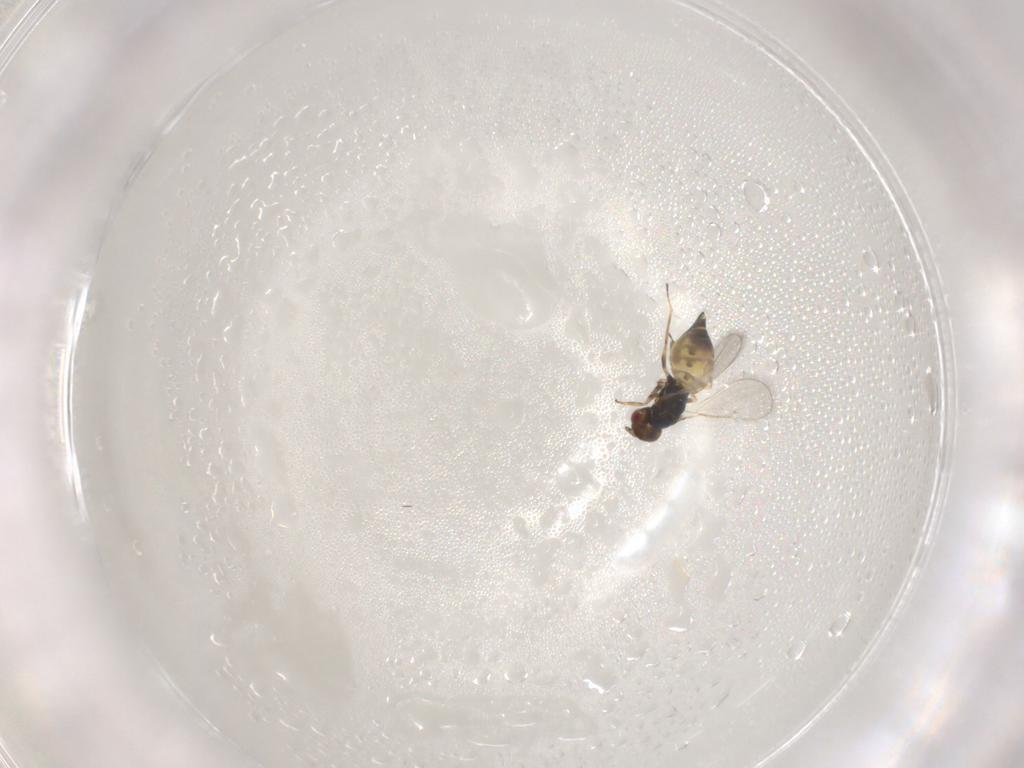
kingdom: Animalia
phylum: Arthropoda
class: Insecta
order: Hymenoptera
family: Eulophidae
